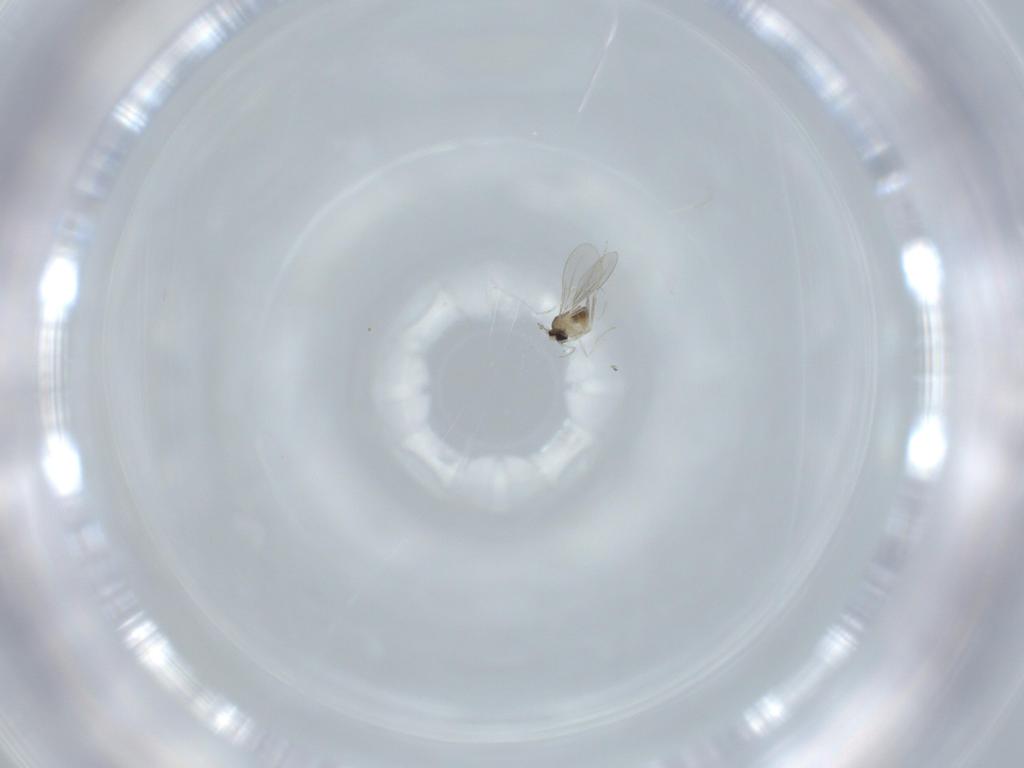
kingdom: Animalia
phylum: Arthropoda
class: Insecta
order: Diptera
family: Cecidomyiidae
